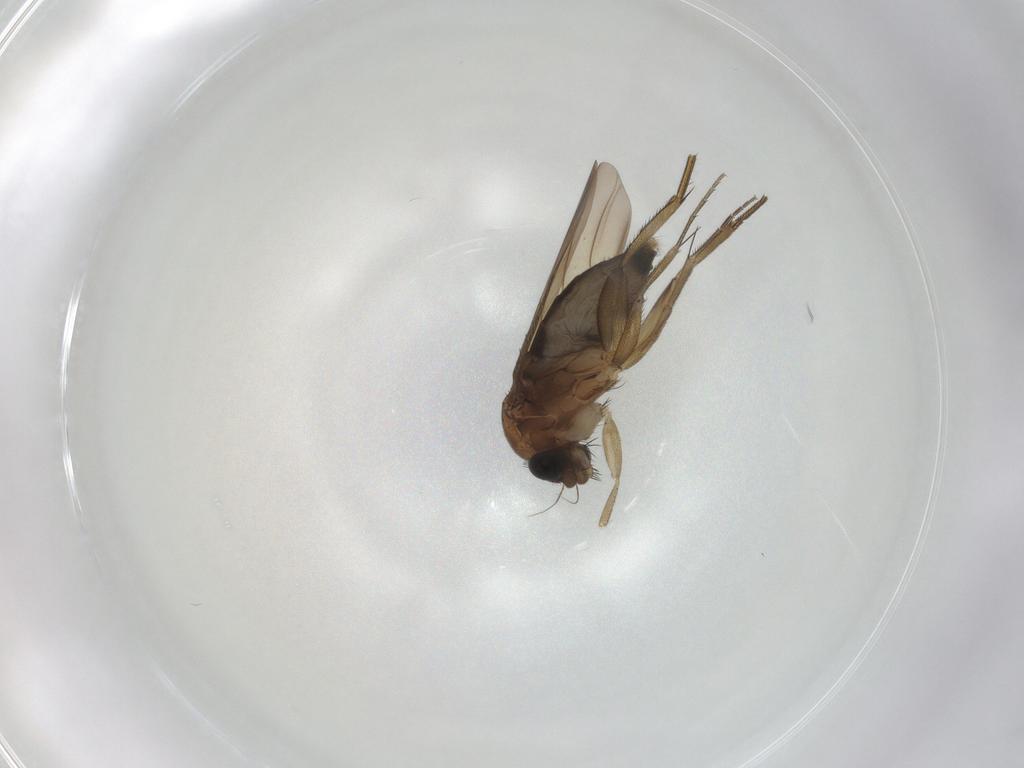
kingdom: Animalia
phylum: Arthropoda
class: Insecta
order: Diptera
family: Phoridae
